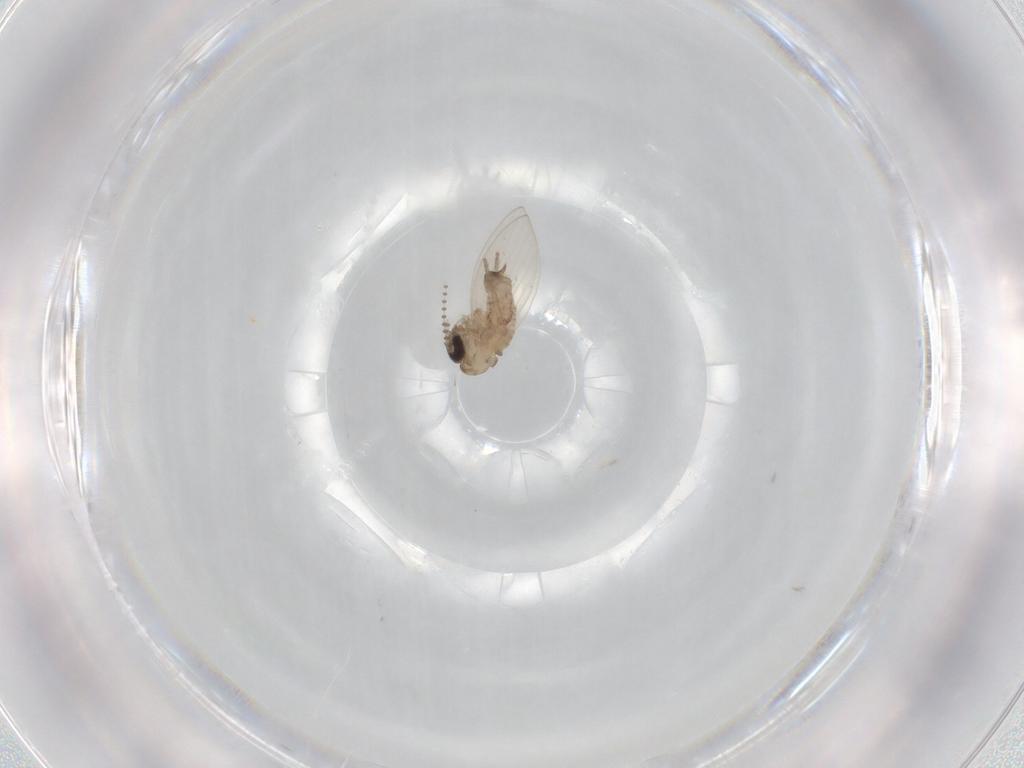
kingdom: Animalia
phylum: Arthropoda
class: Insecta
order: Diptera
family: Psychodidae
